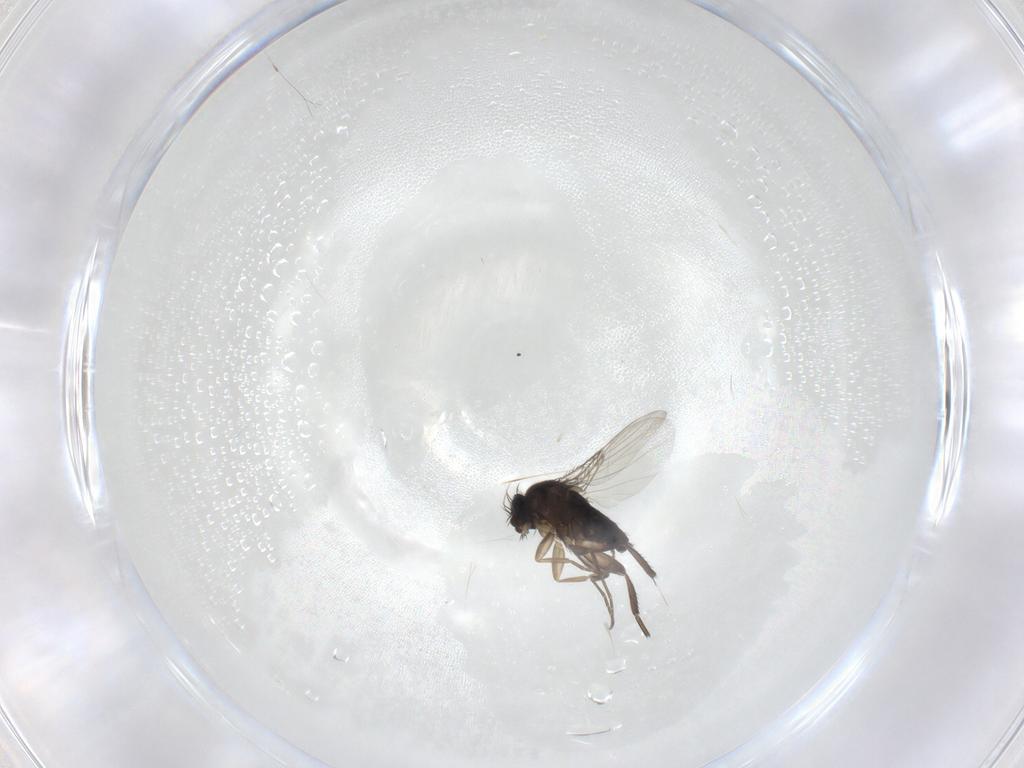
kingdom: Animalia
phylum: Arthropoda
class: Insecta
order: Diptera
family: Phoridae
